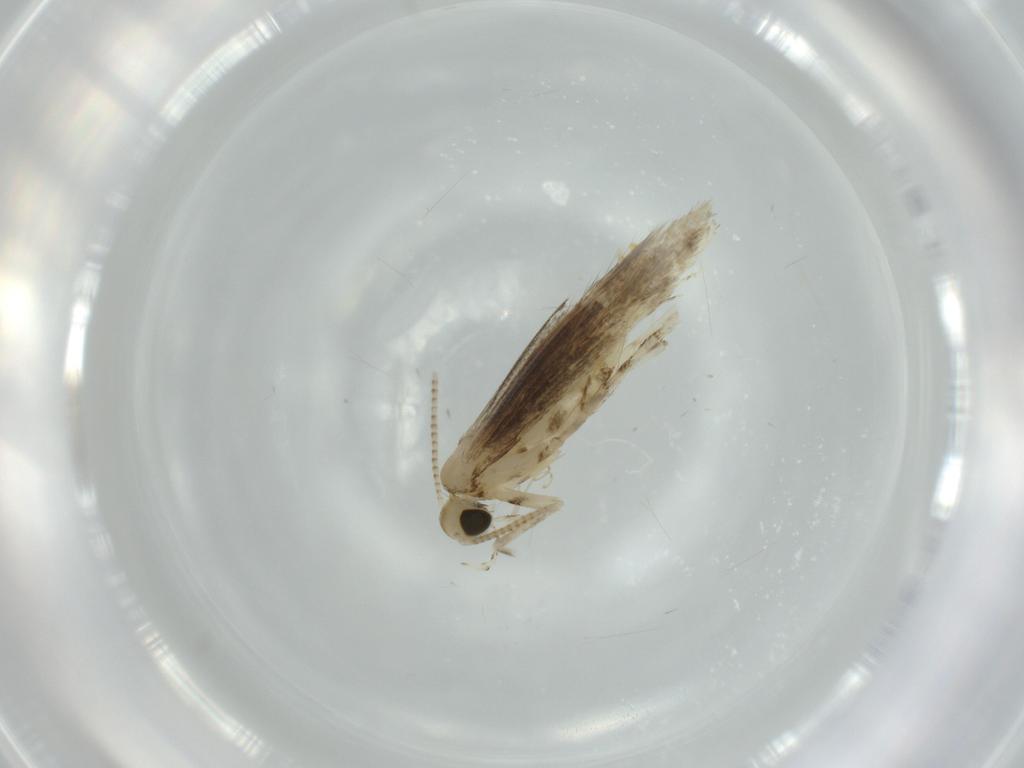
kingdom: Animalia
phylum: Arthropoda
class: Insecta
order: Lepidoptera
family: Gracillariidae
